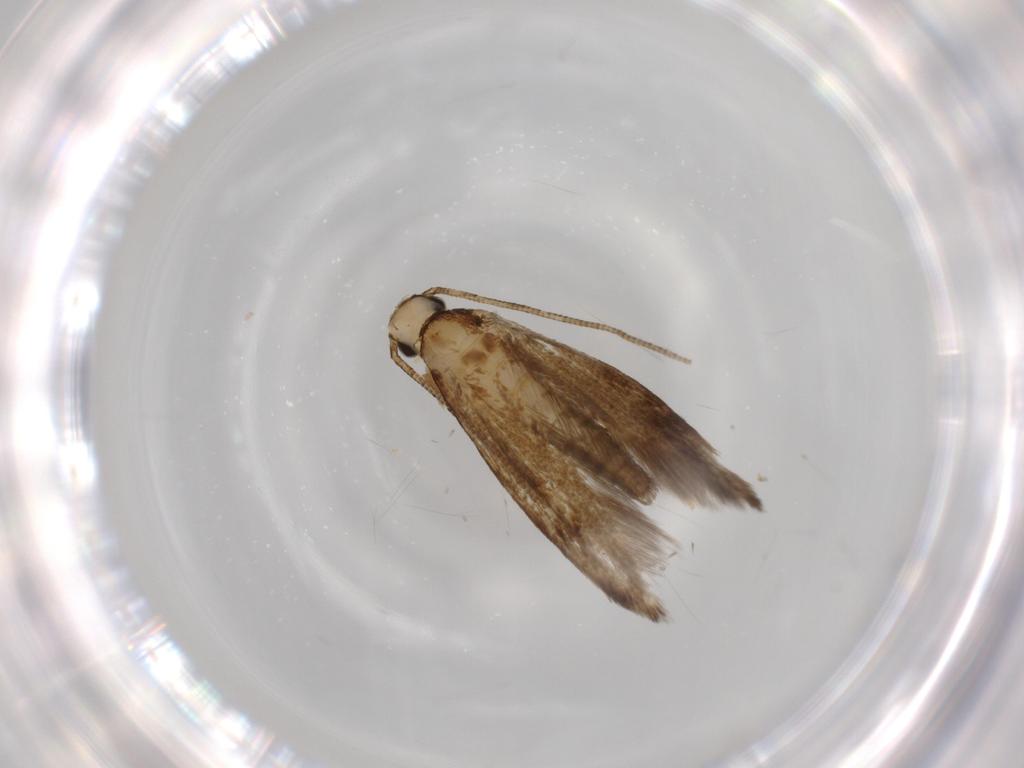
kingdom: Animalia
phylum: Arthropoda
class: Insecta
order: Lepidoptera
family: Tineidae
